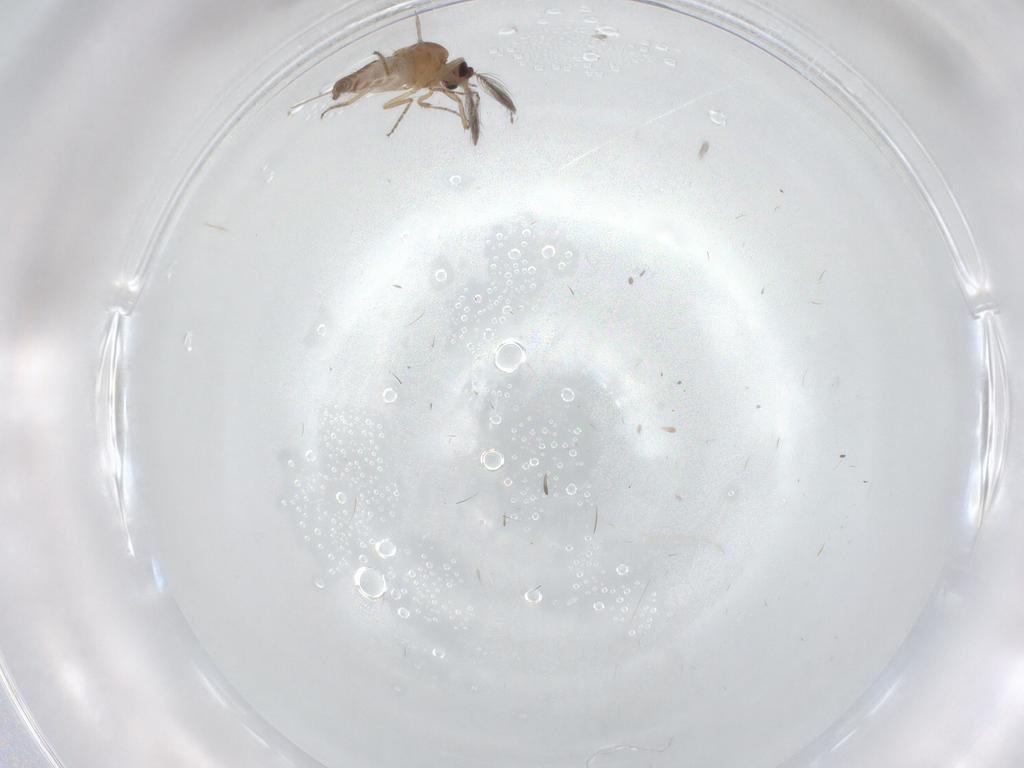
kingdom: Animalia
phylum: Arthropoda
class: Insecta
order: Diptera
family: Ceratopogonidae
